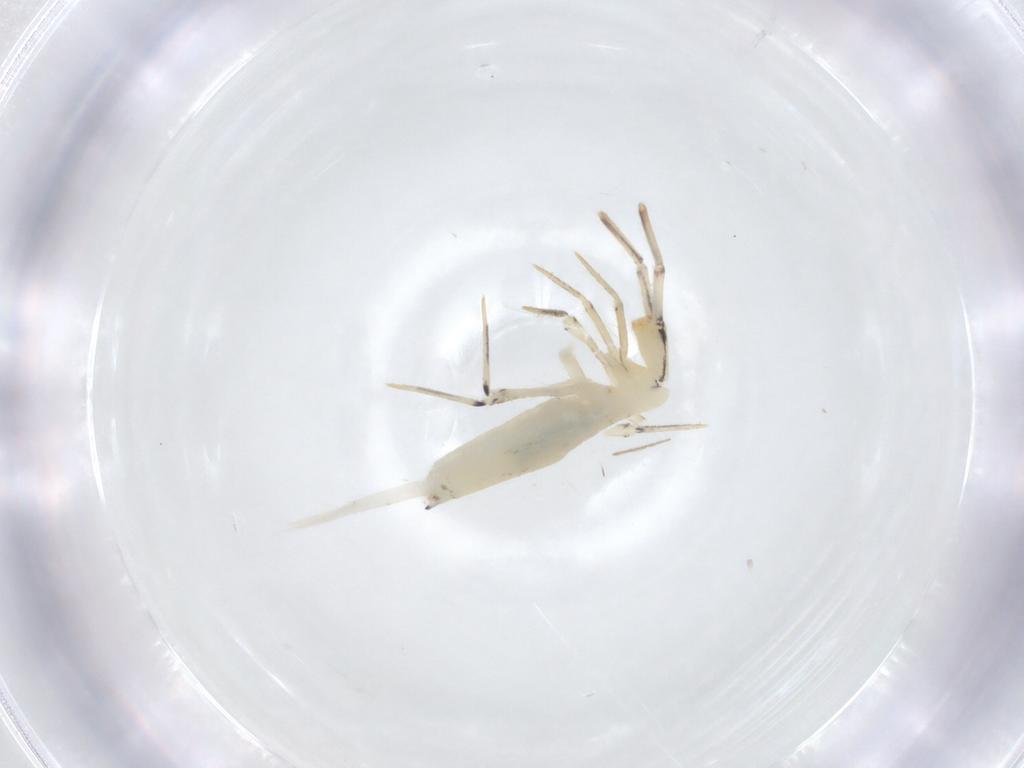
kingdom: Animalia
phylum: Arthropoda
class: Collembola
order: Entomobryomorpha
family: Entomobryidae
